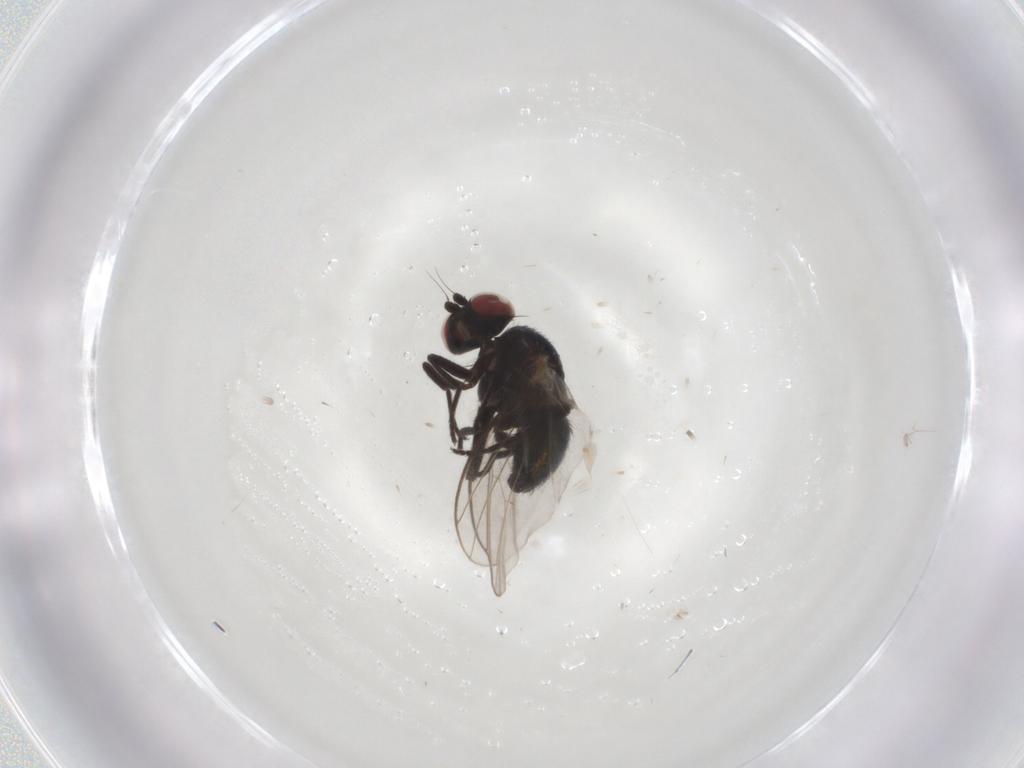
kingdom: Animalia
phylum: Arthropoda
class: Insecta
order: Diptera
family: Agromyzidae
